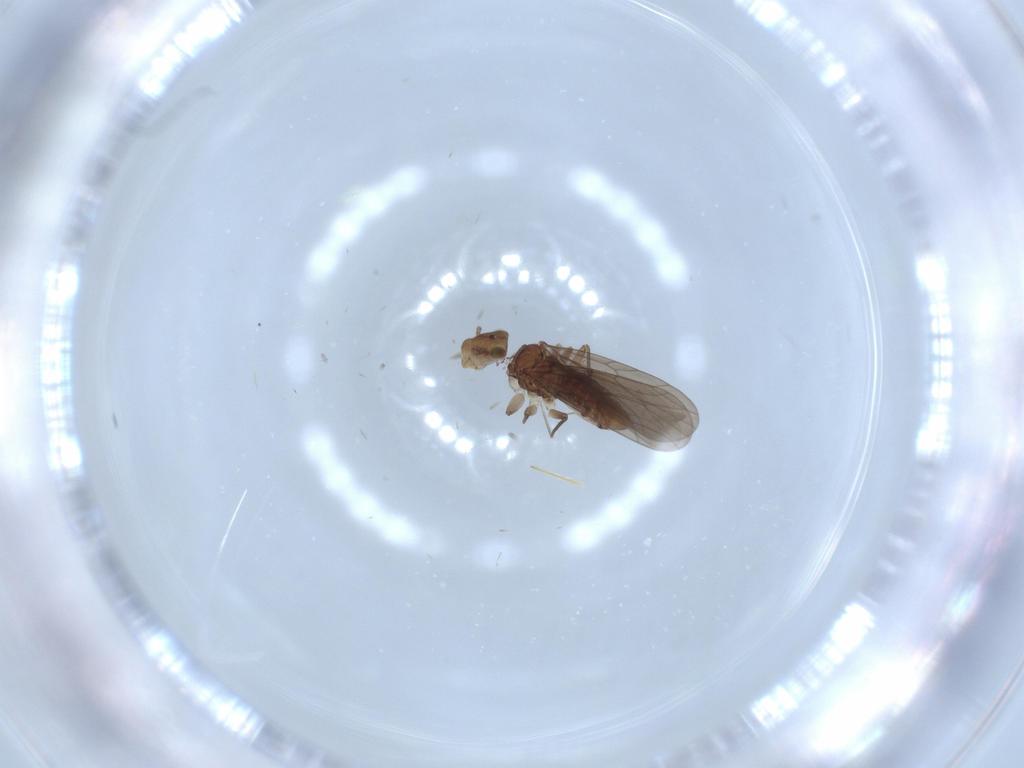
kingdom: Animalia
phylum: Arthropoda
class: Insecta
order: Psocodea
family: Lepidopsocidae
